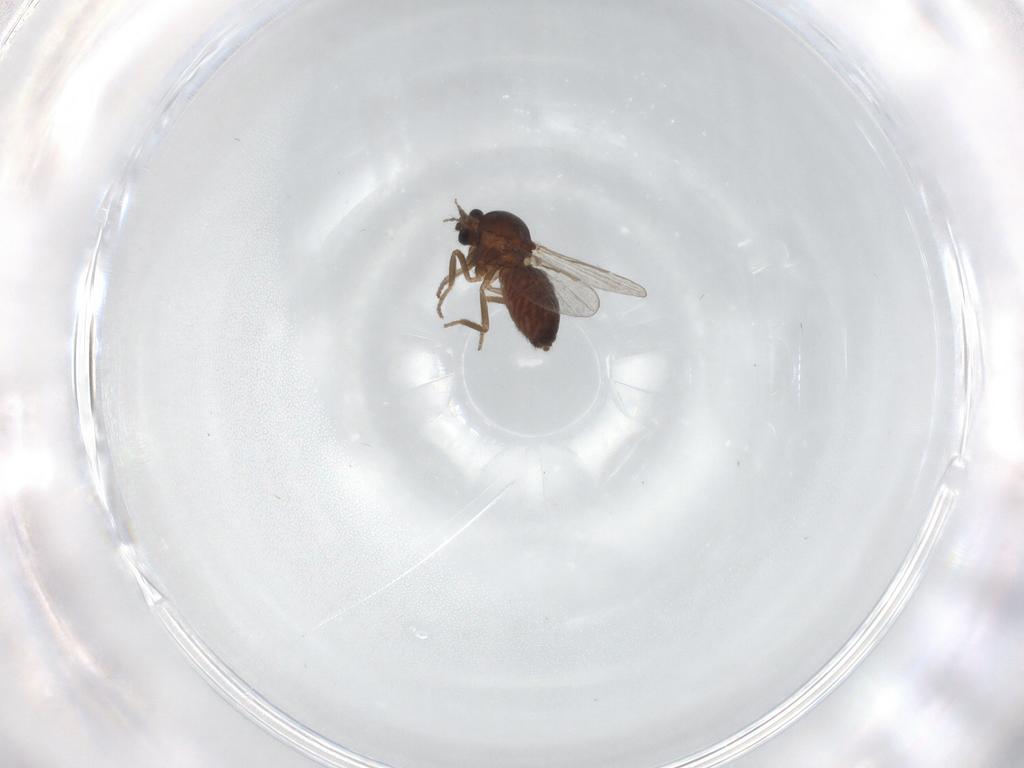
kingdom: Animalia
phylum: Arthropoda
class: Insecta
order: Diptera
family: Ceratopogonidae
